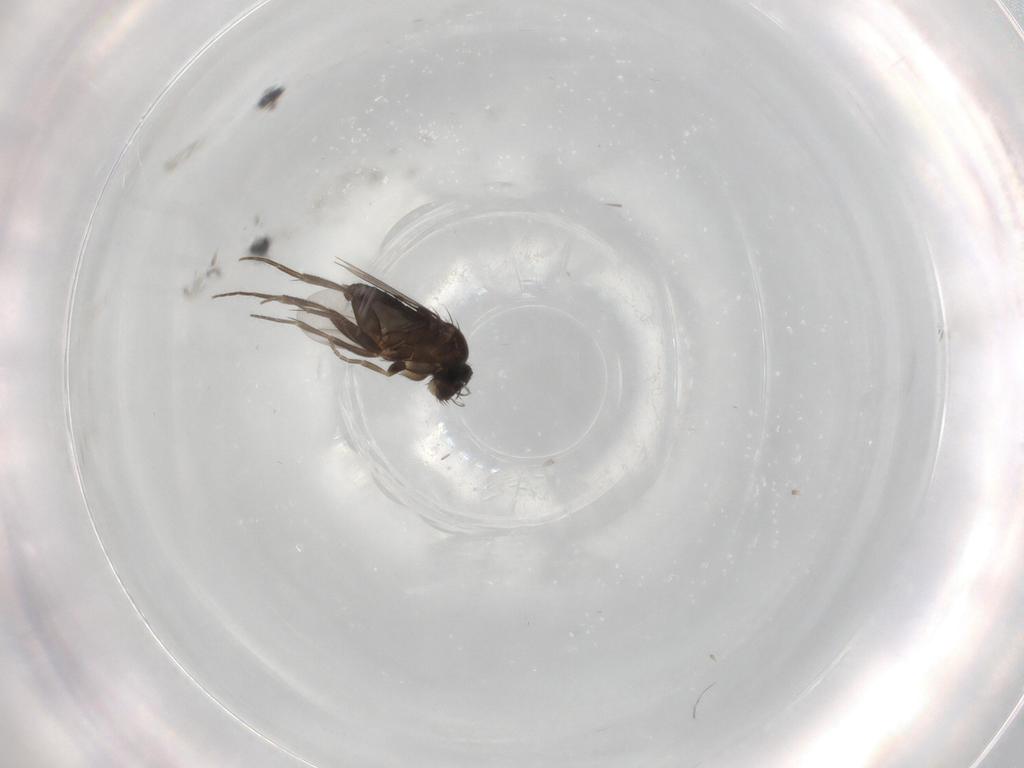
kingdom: Animalia
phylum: Arthropoda
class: Insecta
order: Diptera
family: Phoridae
